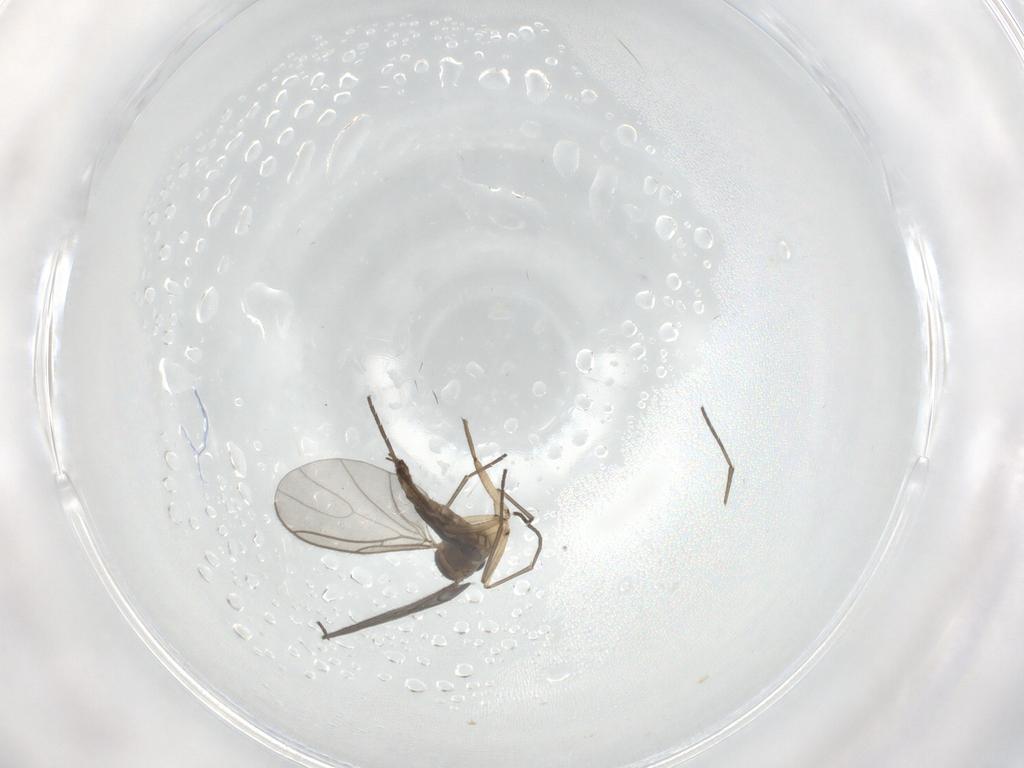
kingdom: Animalia
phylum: Arthropoda
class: Insecta
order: Diptera
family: Sciaridae
